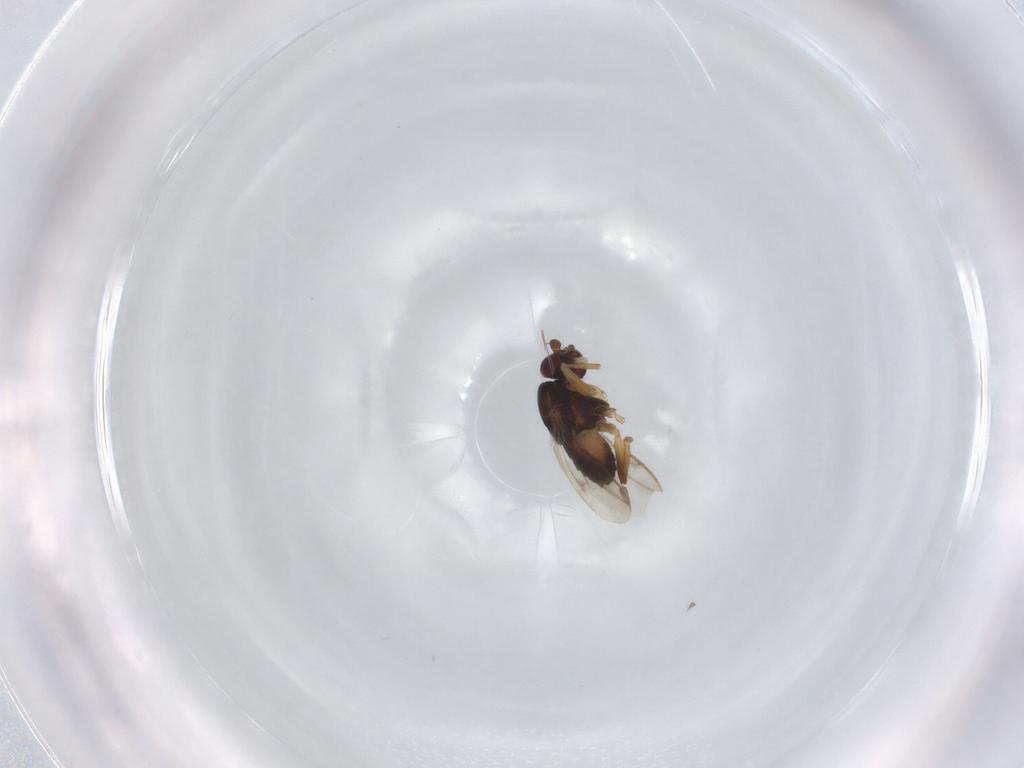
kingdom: Animalia
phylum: Arthropoda
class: Insecta
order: Diptera
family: Sphaeroceridae
